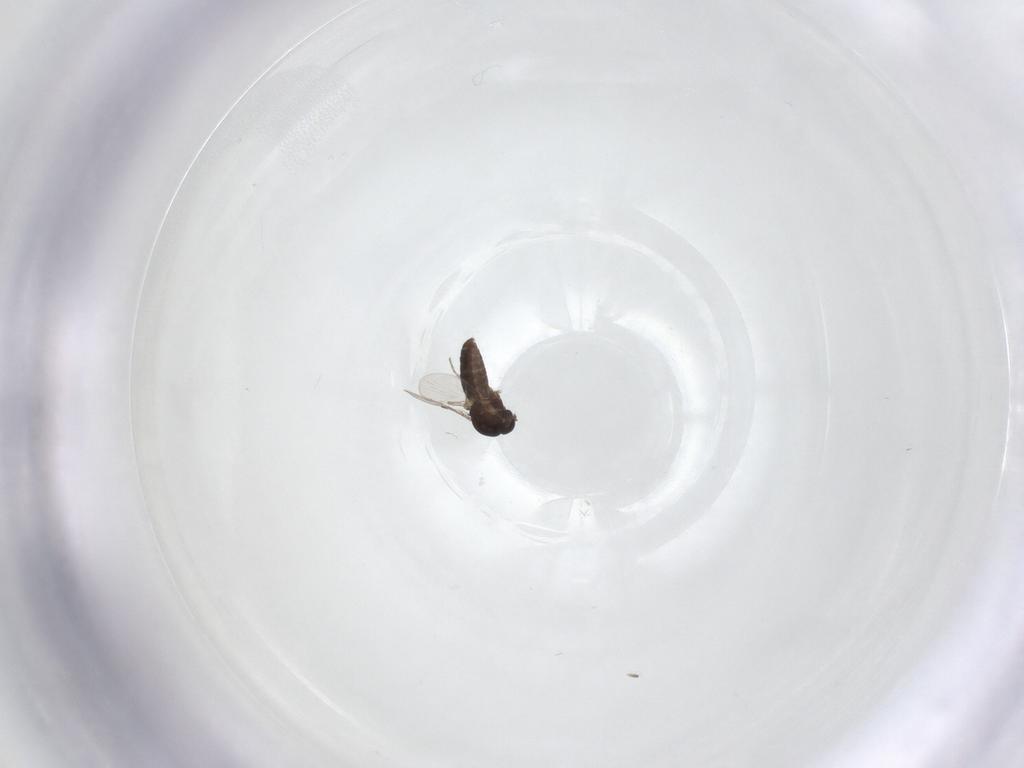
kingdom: Animalia
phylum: Arthropoda
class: Insecta
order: Diptera
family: Ceratopogonidae
